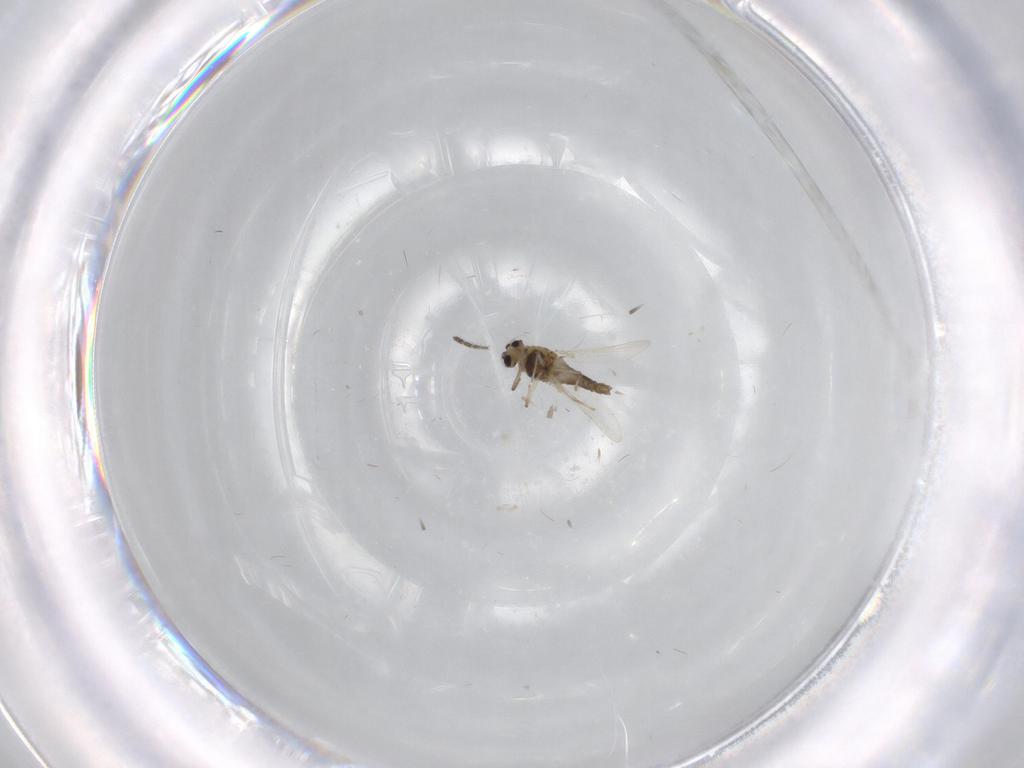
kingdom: Animalia
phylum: Arthropoda
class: Insecta
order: Diptera
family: Chironomidae
